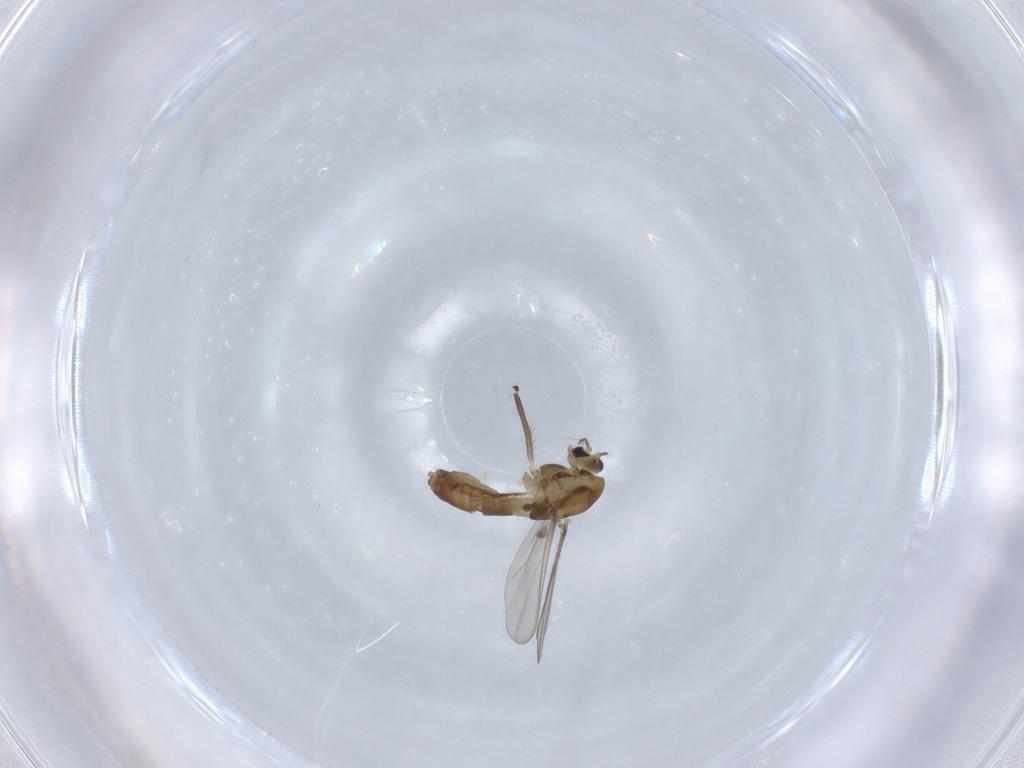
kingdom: Animalia
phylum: Arthropoda
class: Insecta
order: Diptera
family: Chironomidae
